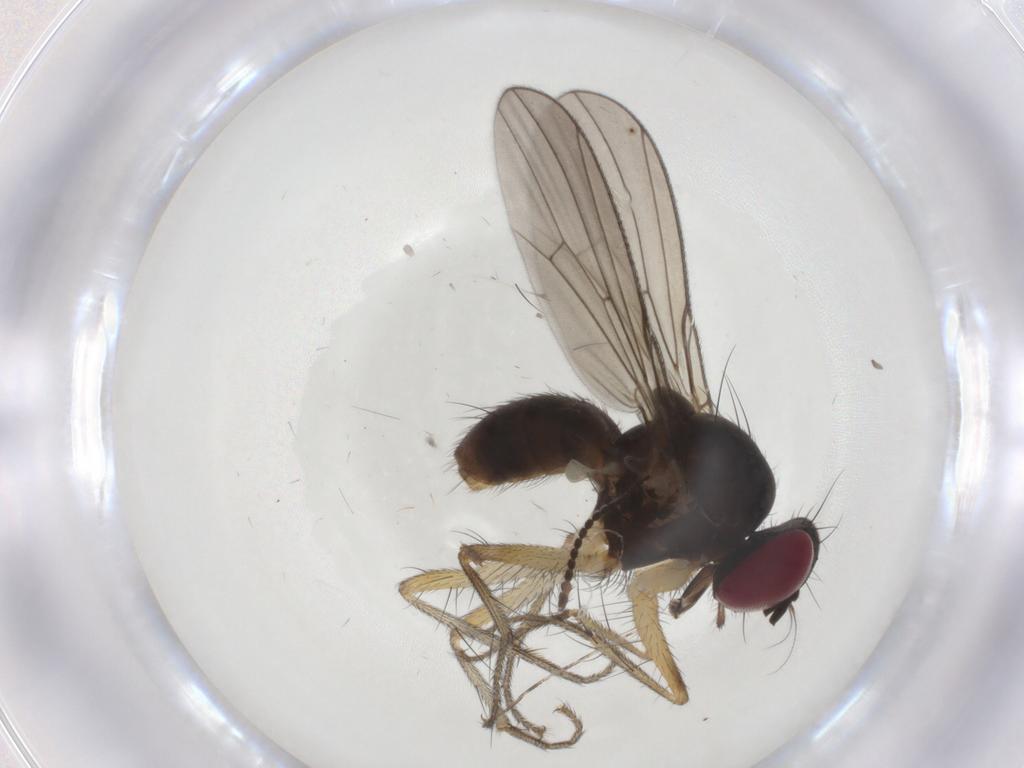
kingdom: Animalia
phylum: Arthropoda
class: Insecta
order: Diptera
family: Anthomyiidae
